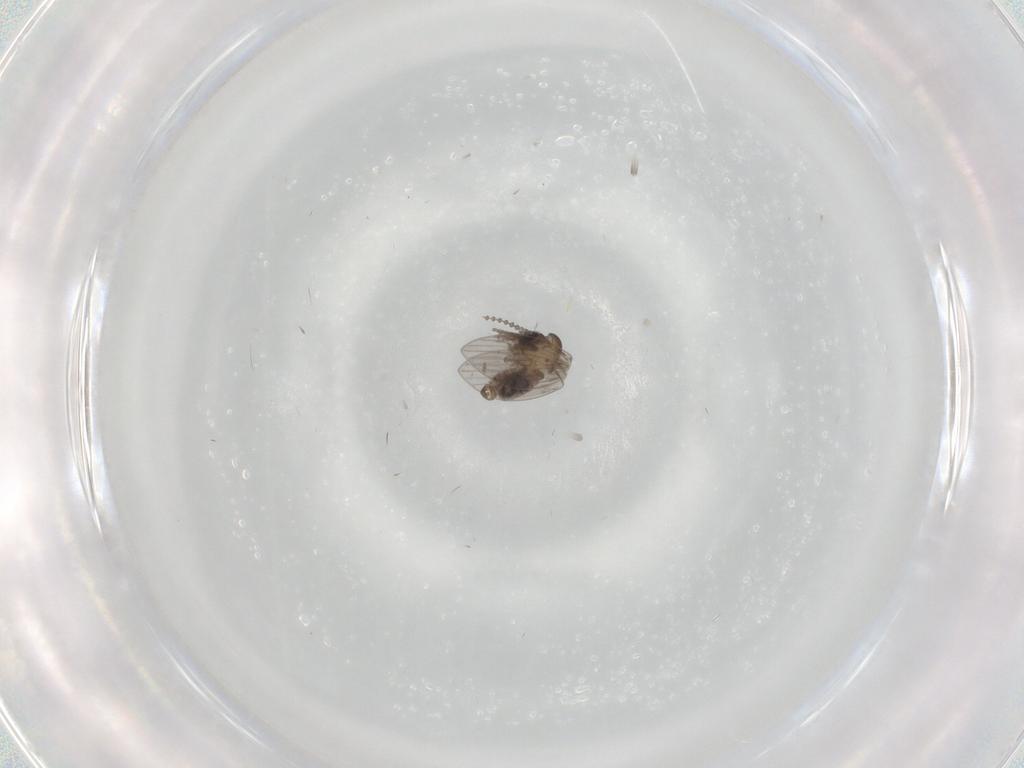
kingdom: Animalia
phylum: Arthropoda
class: Insecta
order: Diptera
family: Psychodidae
